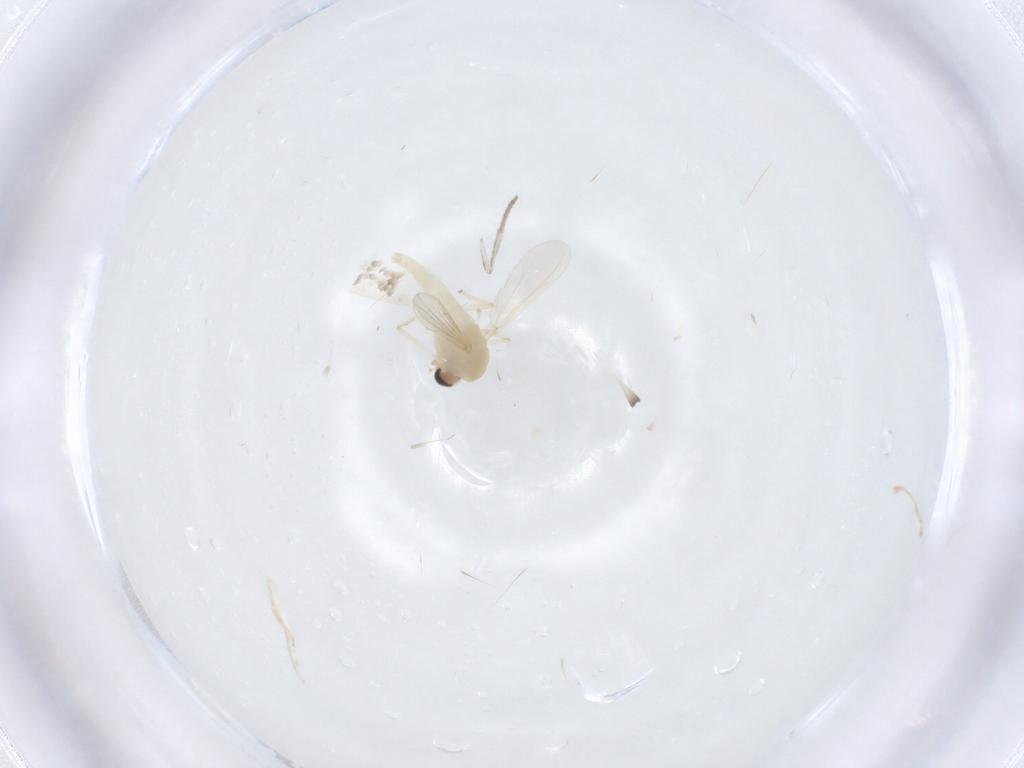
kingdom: Animalia
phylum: Arthropoda
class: Insecta
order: Diptera
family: Chironomidae
